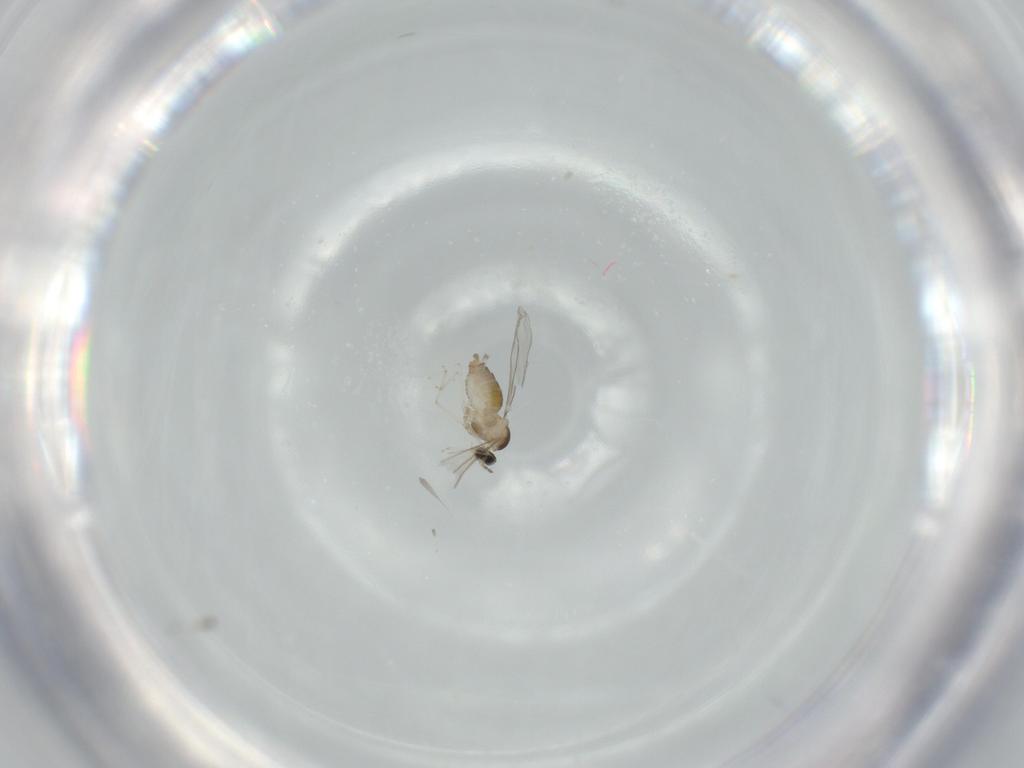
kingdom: Animalia
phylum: Arthropoda
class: Insecta
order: Diptera
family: Cecidomyiidae
